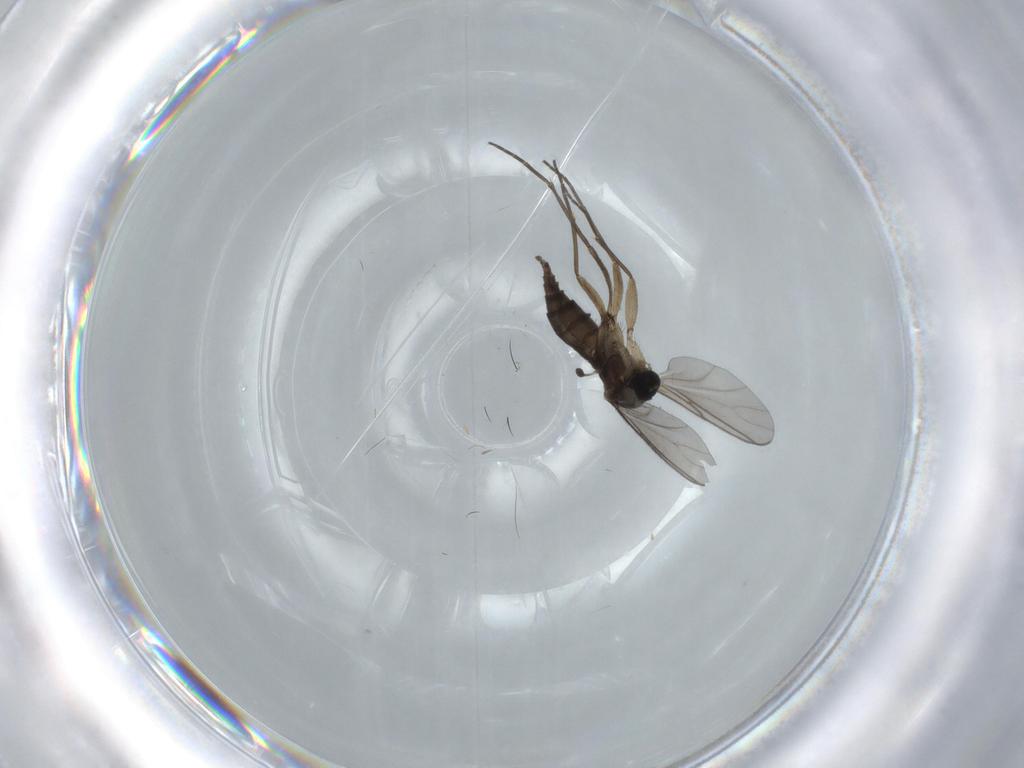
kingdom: Animalia
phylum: Arthropoda
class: Insecta
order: Diptera
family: Sciaridae
